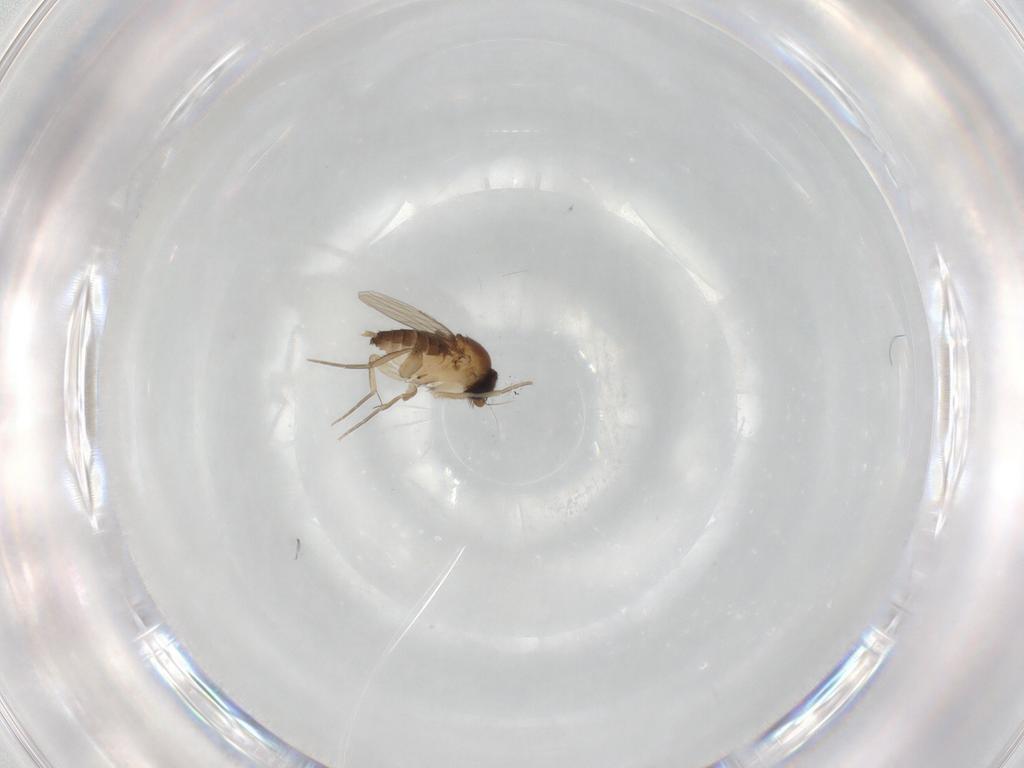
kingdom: Animalia
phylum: Arthropoda
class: Insecta
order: Diptera
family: Phoridae
